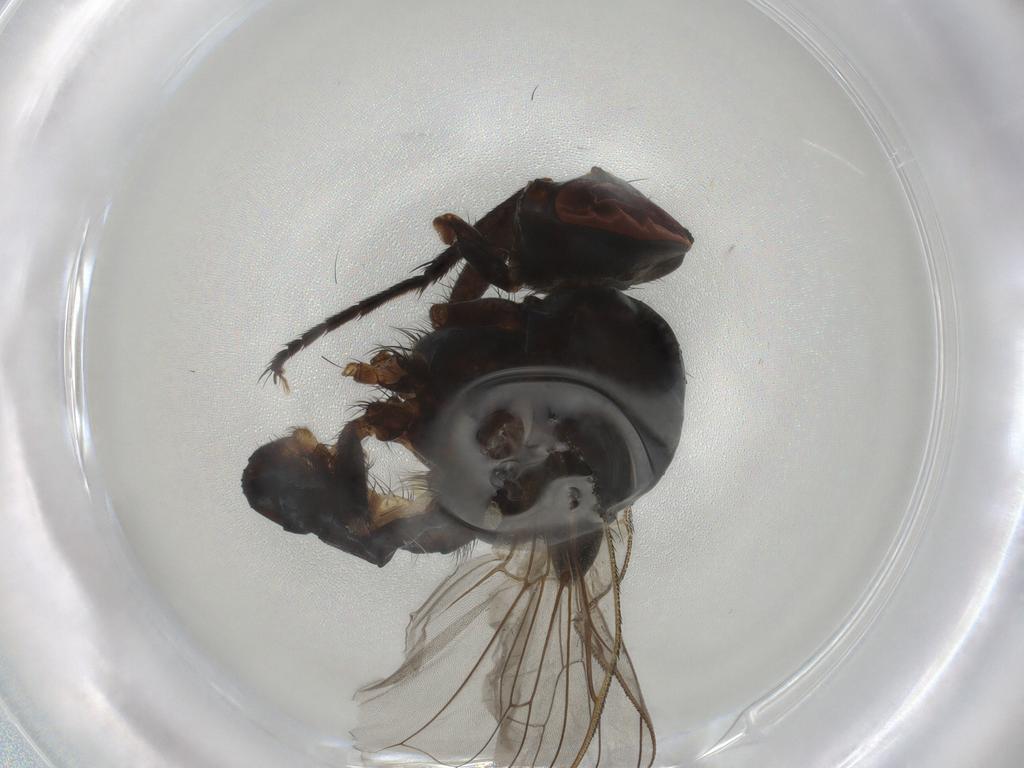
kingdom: Animalia
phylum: Arthropoda
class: Insecta
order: Diptera
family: Anthomyiidae
